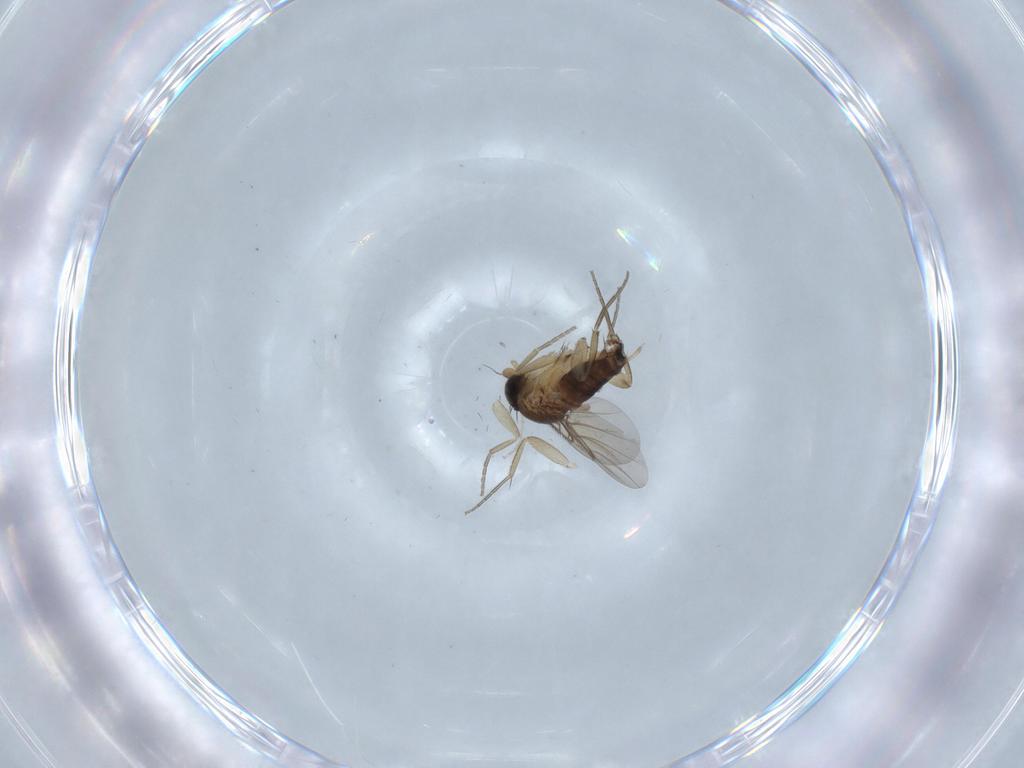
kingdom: Animalia
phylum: Arthropoda
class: Insecta
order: Diptera
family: Phoridae
